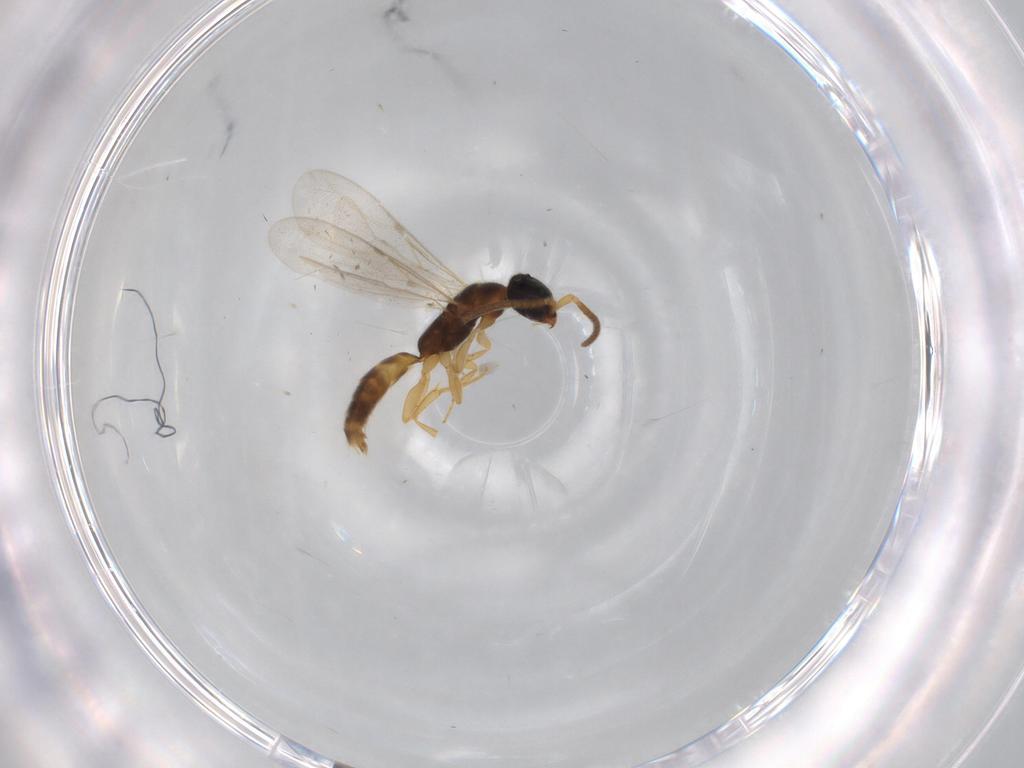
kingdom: Animalia
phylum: Arthropoda
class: Insecta
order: Hymenoptera
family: Bethylidae
